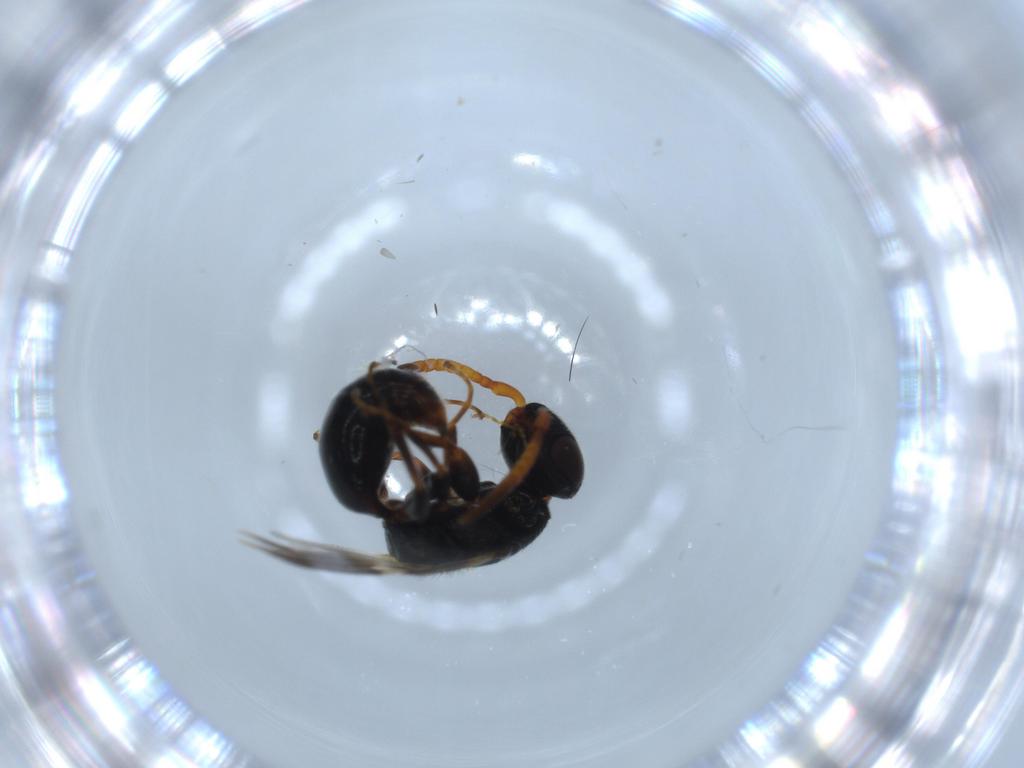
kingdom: Animalia
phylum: Arthropoda
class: Insecta
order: Hymenoptera
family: Bethylidae
